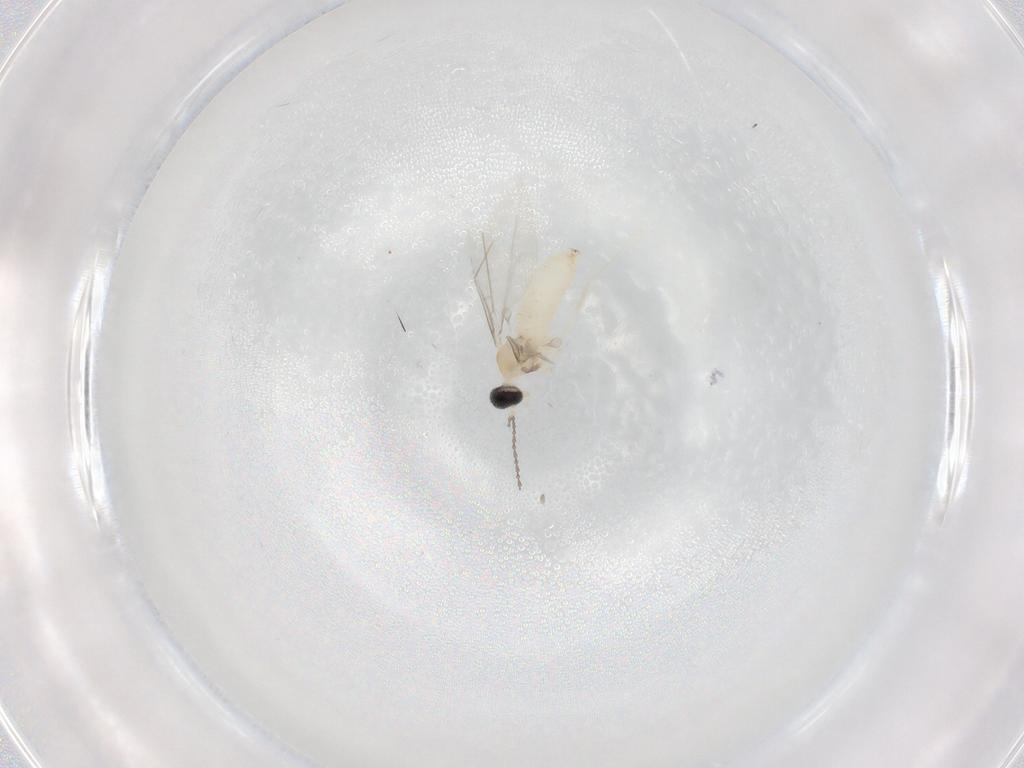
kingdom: Animalia
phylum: Arthropoda
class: Insecta
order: Diptera
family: Cecidomyiidae
